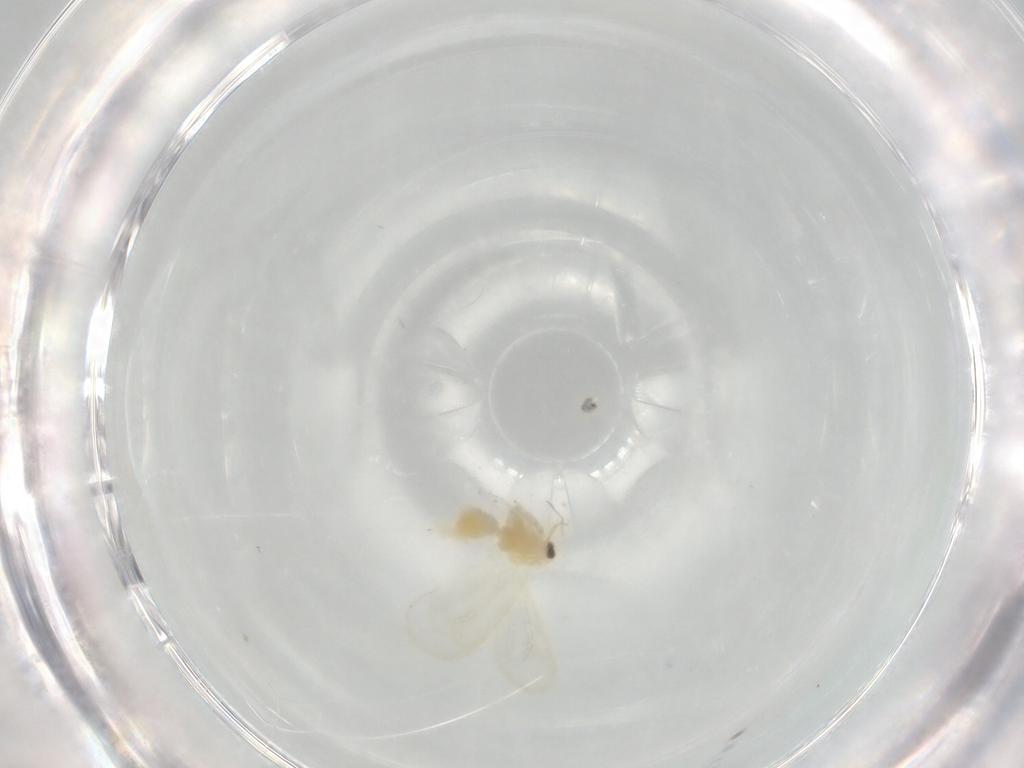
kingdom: Animalia
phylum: Arthropoda
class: Insecta
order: Hemiptera
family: Aleyrodidae
